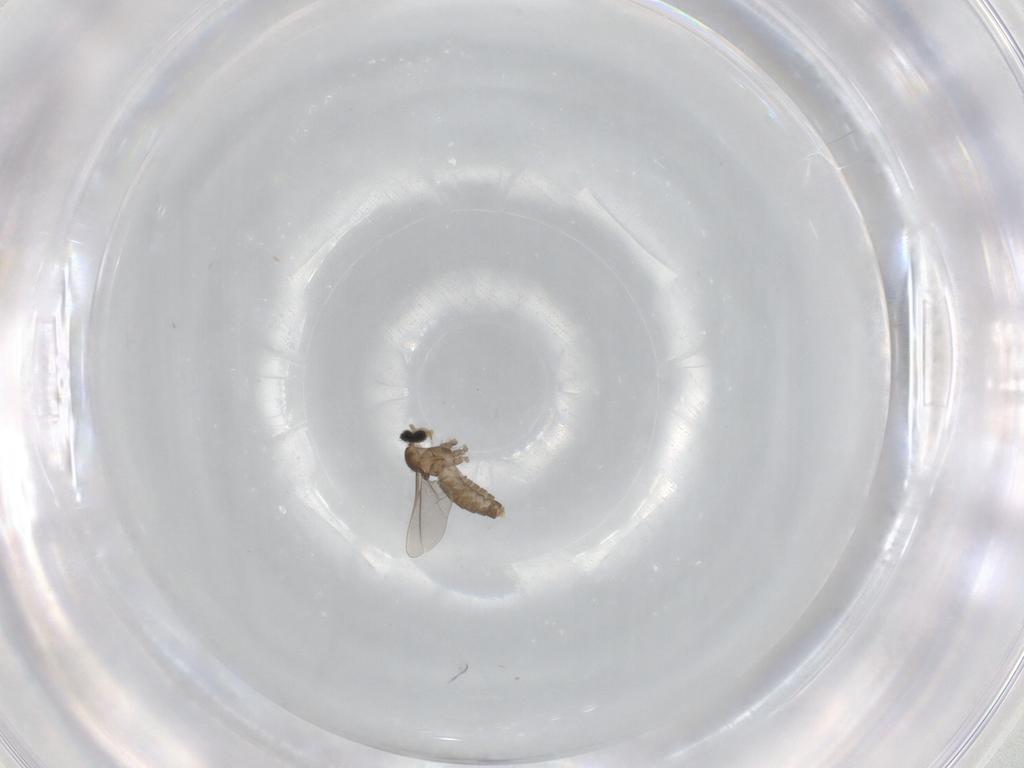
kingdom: Animalia
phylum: Arthropoda
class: Insecta
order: Diptera
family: Cecidomyiidae
